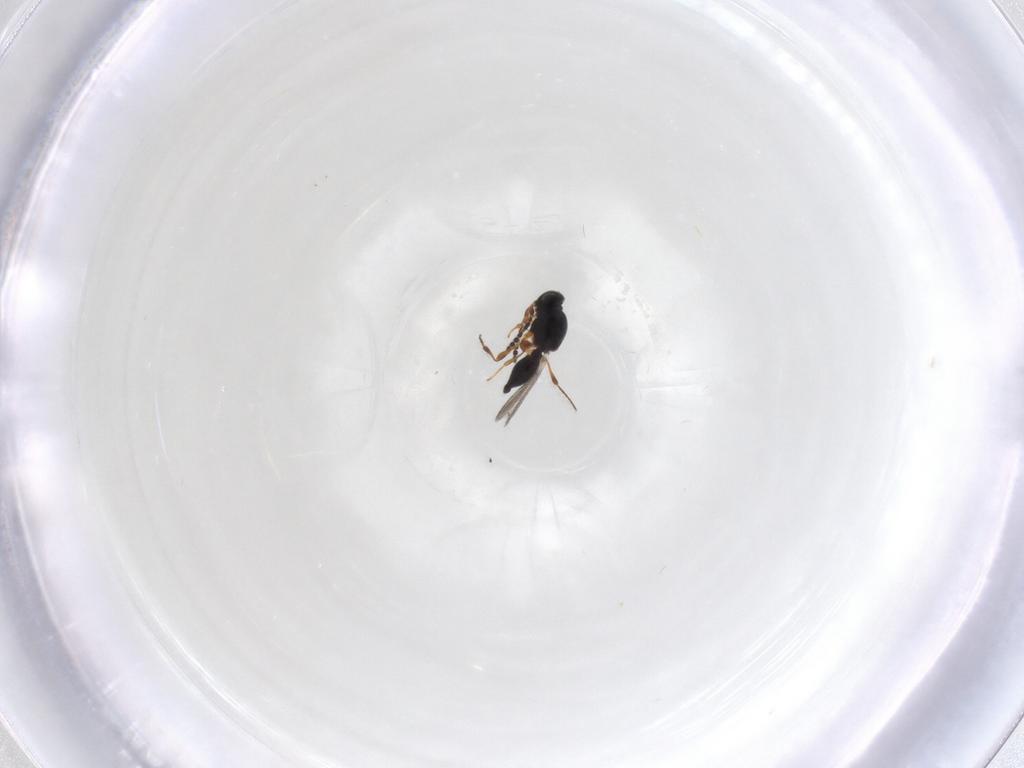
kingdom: Animalia
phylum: Arthropoda
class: Insecta
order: Hymenoptera
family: Platygastridae
